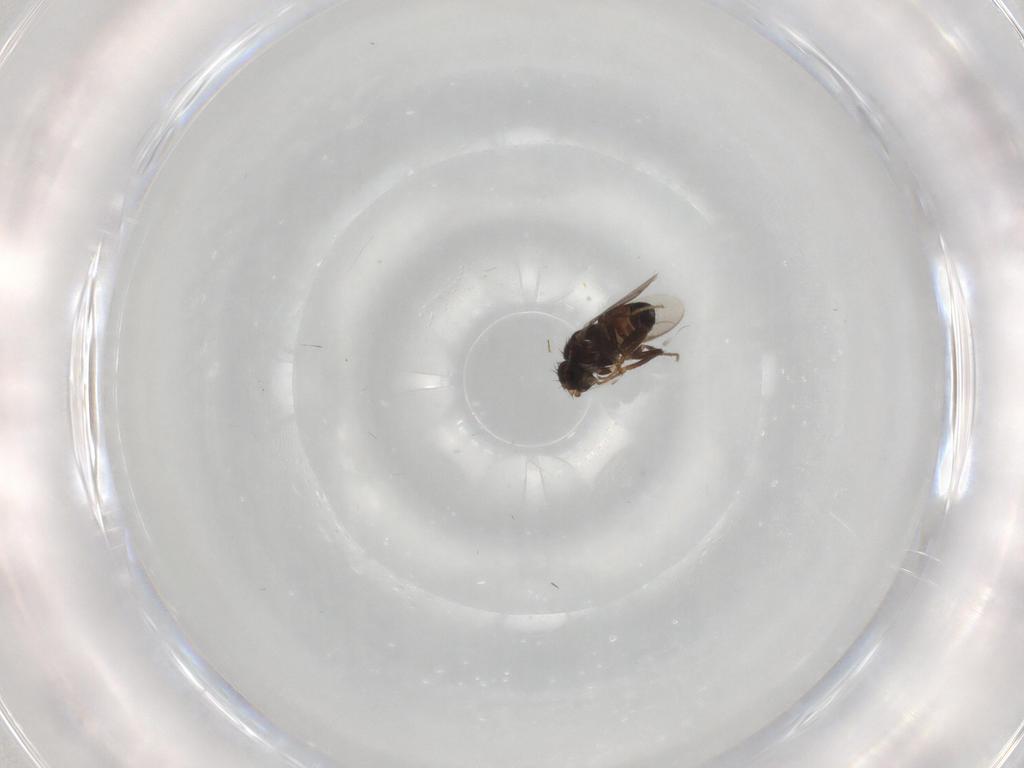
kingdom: Animalia
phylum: Arthropoda
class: Insecta
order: Diptera
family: Sphaeroceridae
